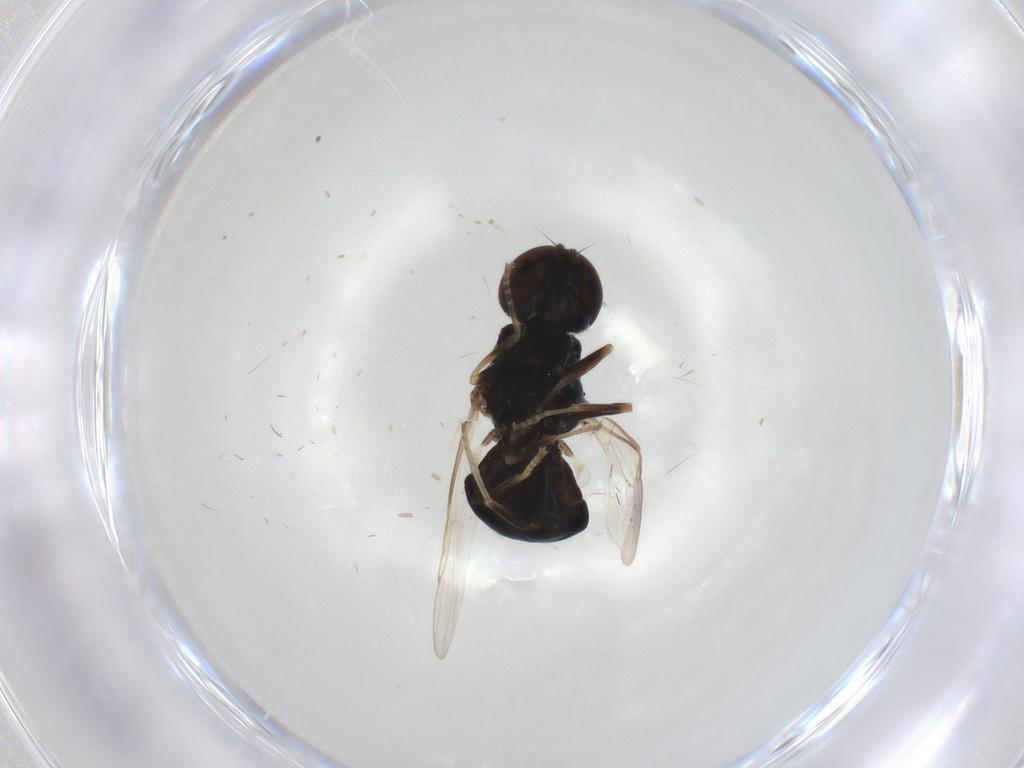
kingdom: Animalia
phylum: Arthropoda
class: Insecta
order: Diptera
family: Stratiomyidae
